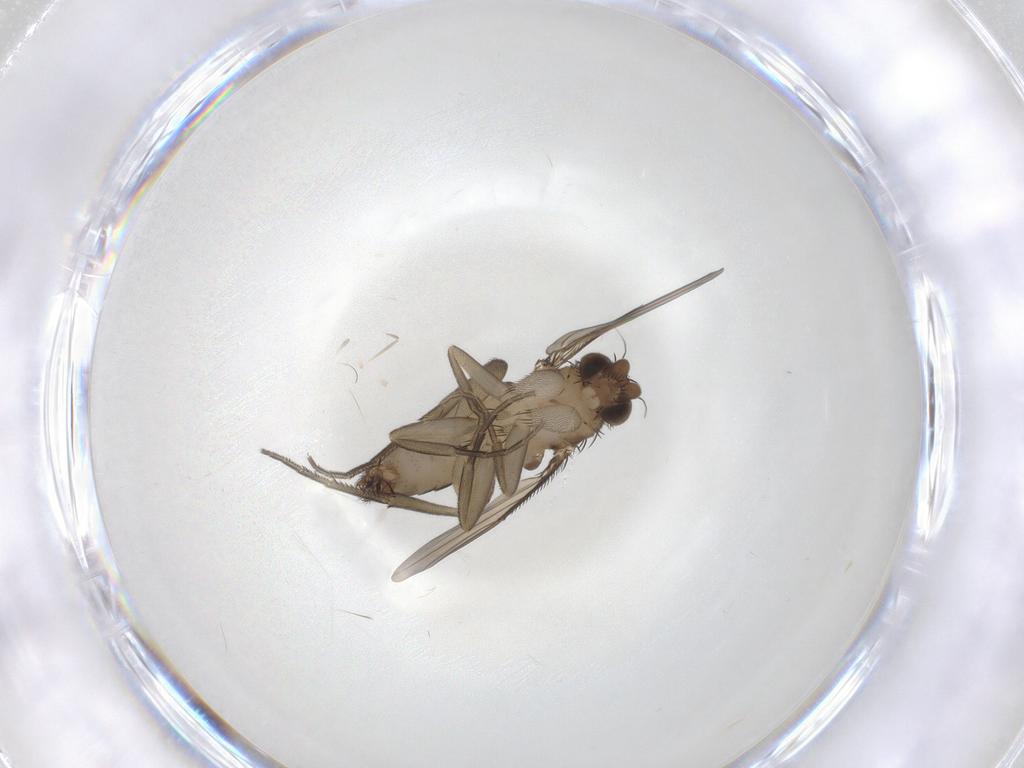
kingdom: Animalia
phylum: Arthropoda
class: Insecta
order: Diptera
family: Phoridae
